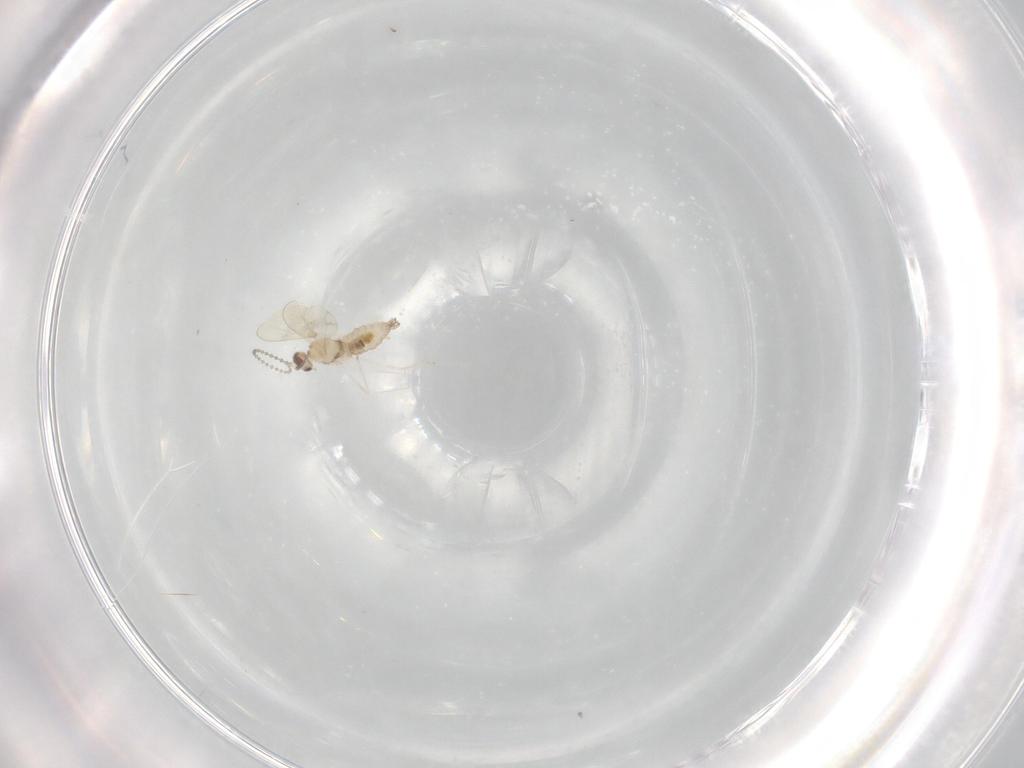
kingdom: Animalia
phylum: Arthropoda
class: Insecta
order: Diptera
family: Cecidomyiidae
